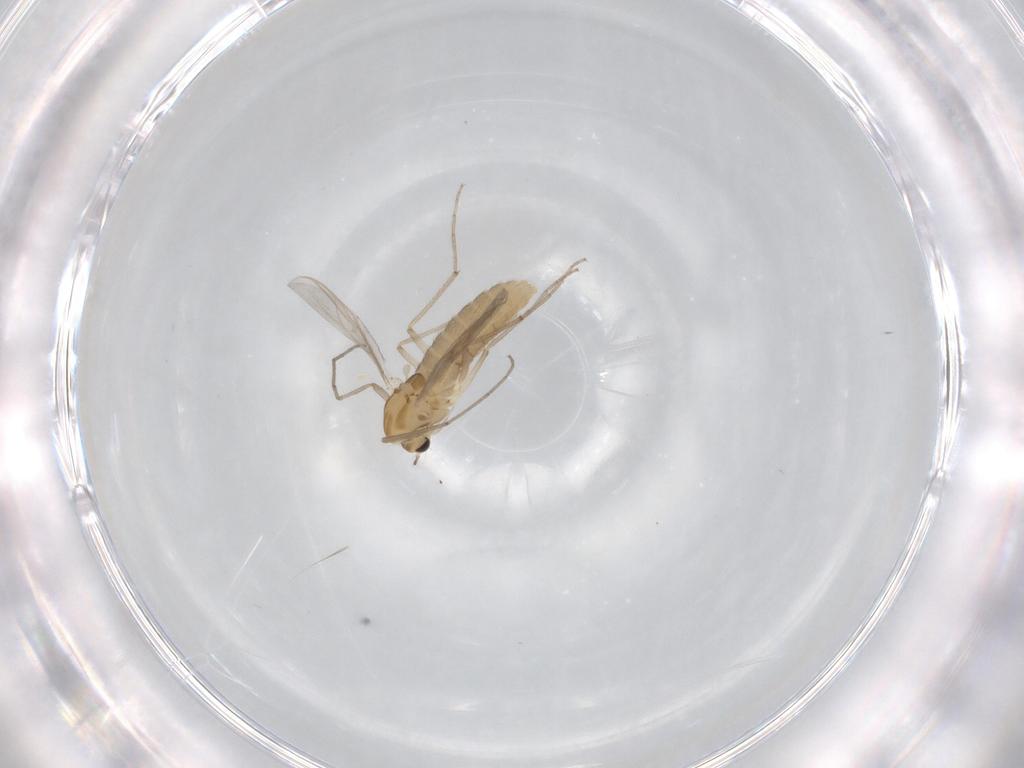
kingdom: Animalia
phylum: Arthropoda
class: Insecta
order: Diptera
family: Chironomidae
